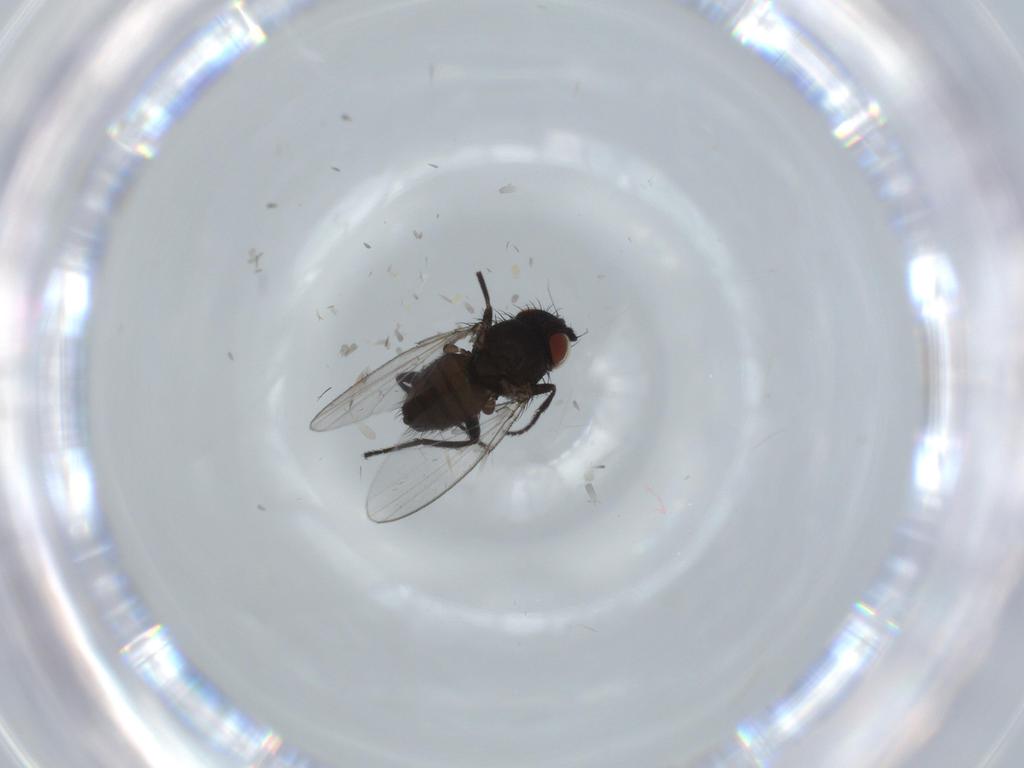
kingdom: Animalia
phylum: Arthropoda
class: Insecta
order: Diptera
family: Milichiidae
